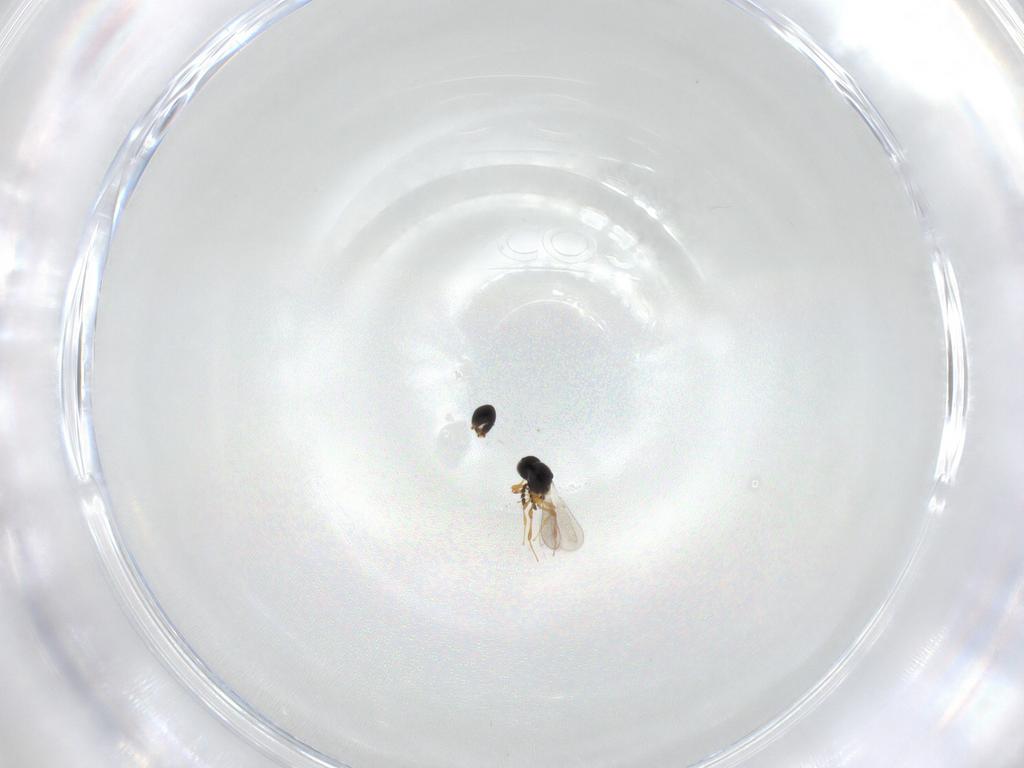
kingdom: Animalia
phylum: Arthropoda
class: Insecta
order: Hymenoptera
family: Platygastridae
